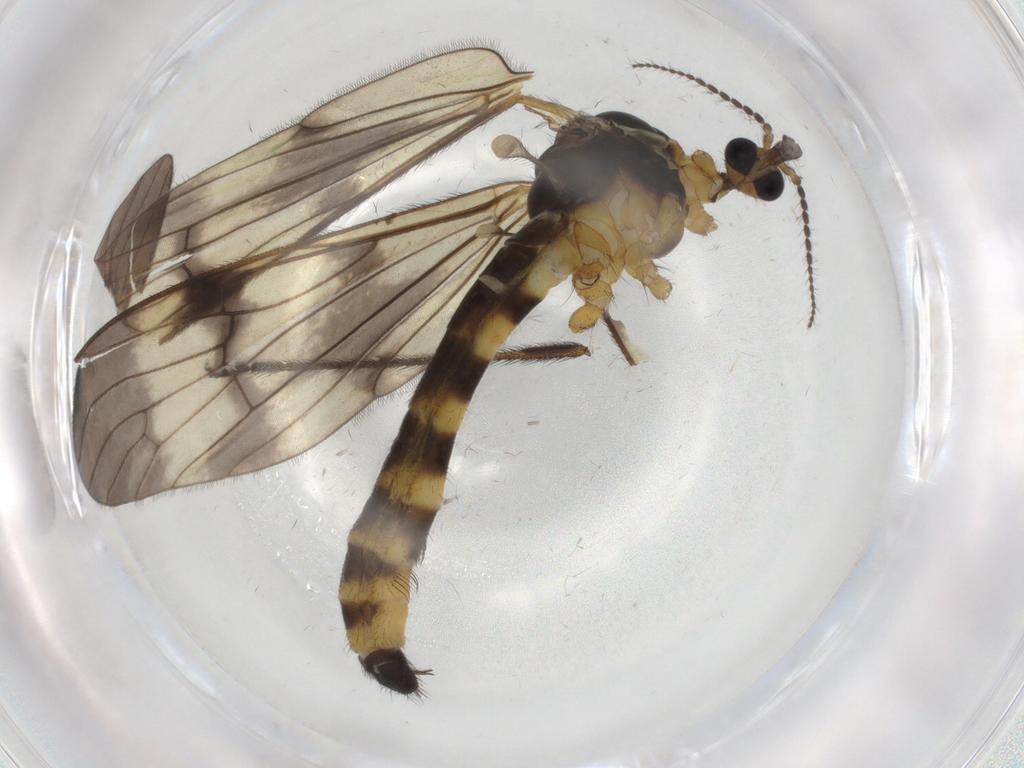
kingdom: Animalia
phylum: Arthropoda
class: Insecta
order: Diptera
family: Limoniidae
